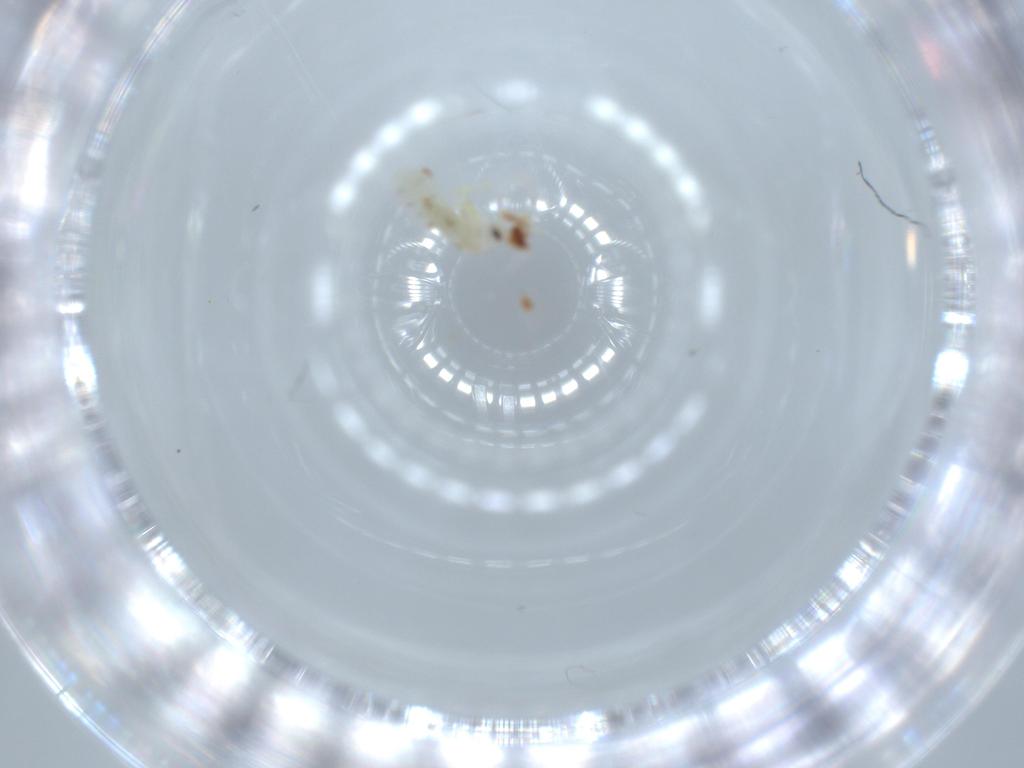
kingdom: Animalia
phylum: Arthropoda
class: Insecta
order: Hemiptera
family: Aleyrodidae
